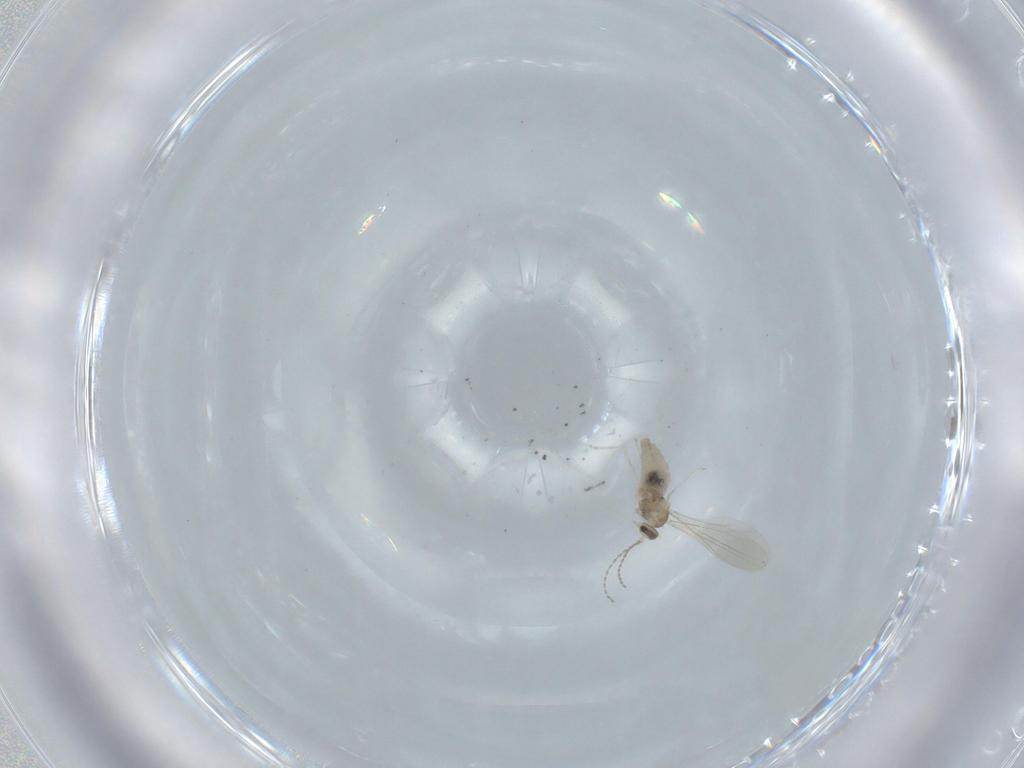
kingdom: Animalia
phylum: Arthropoda
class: Insecta
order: Diptera
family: Cecidomyiidae
